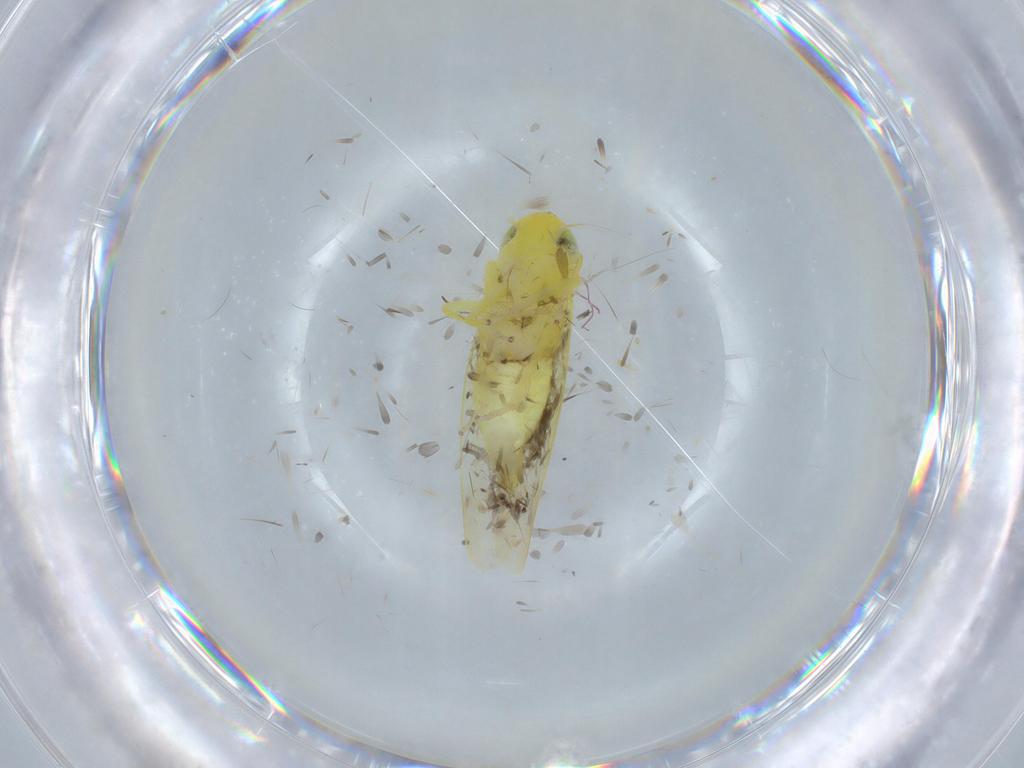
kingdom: Animalia
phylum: Arthropoda
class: Insecta
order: Hemiptera
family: Cicadellidae
